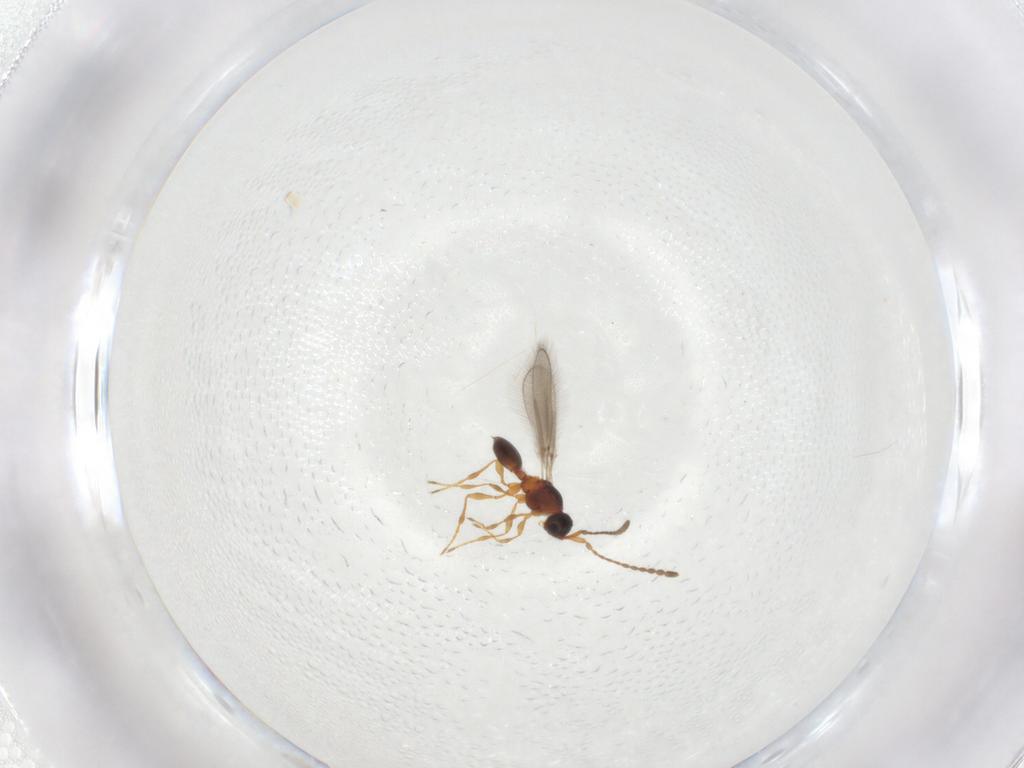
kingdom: Animalia
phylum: Arthropoda
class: Insecta
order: Hymenoptera
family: Diapriidae
